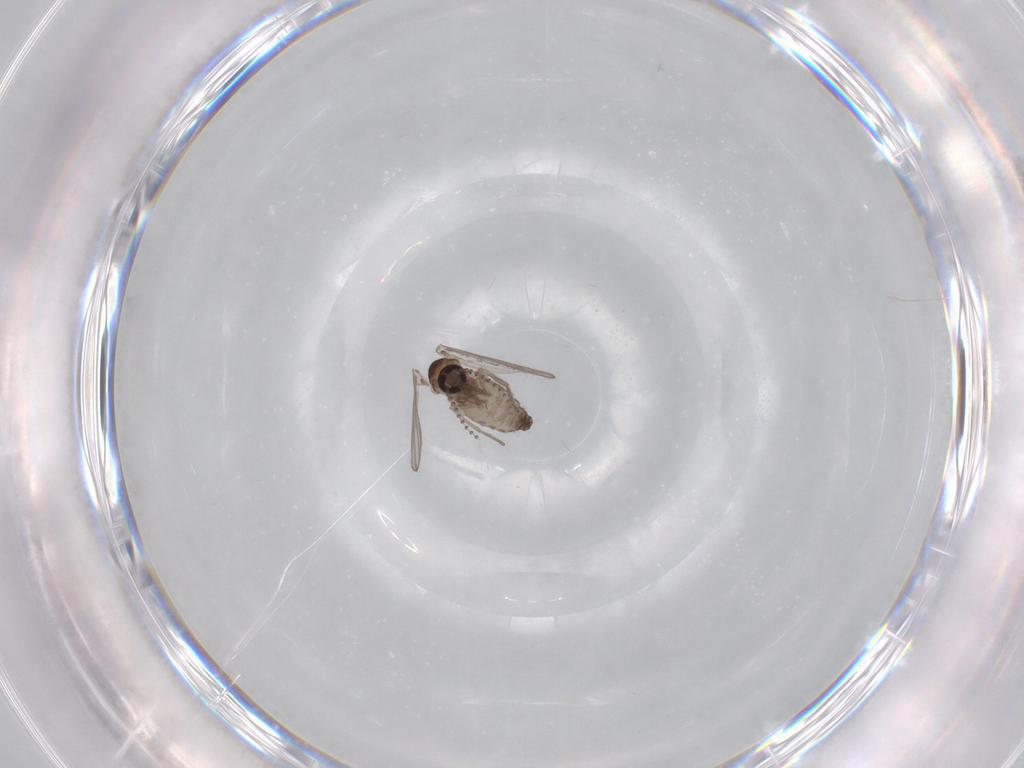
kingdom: Animalia
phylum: Arthropoda
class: Insecta
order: Diptera
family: Psychodidae
